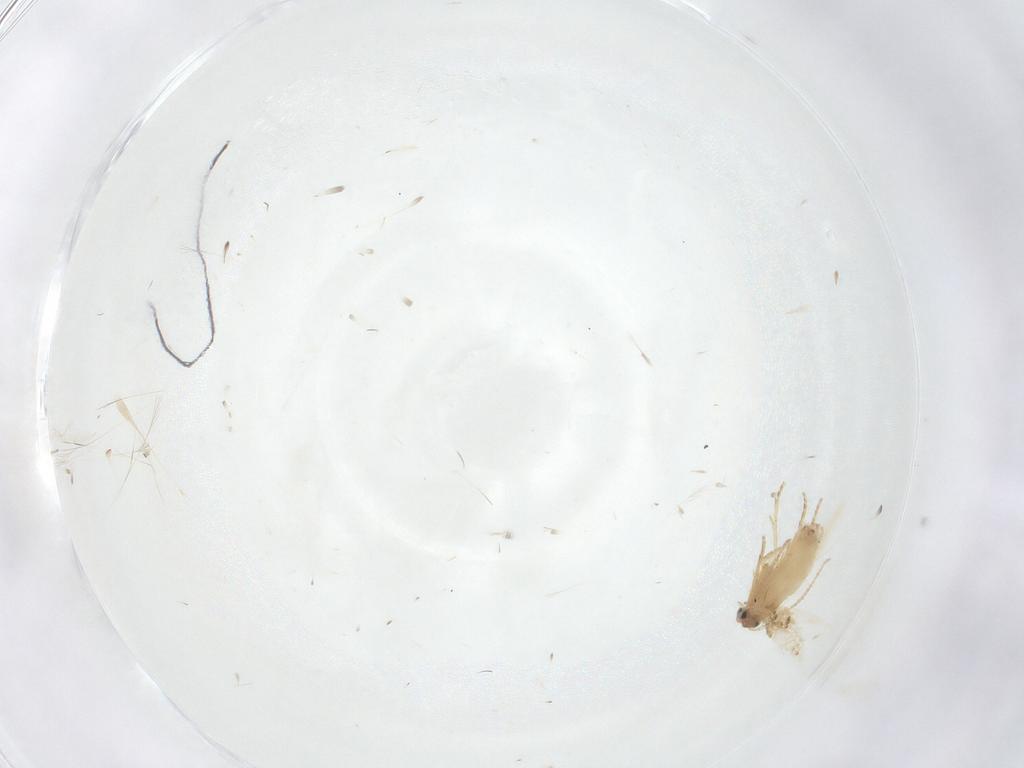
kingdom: Animalia
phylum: Arthropoda
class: Insecta
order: Lepidoptera
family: Nepticulidae
